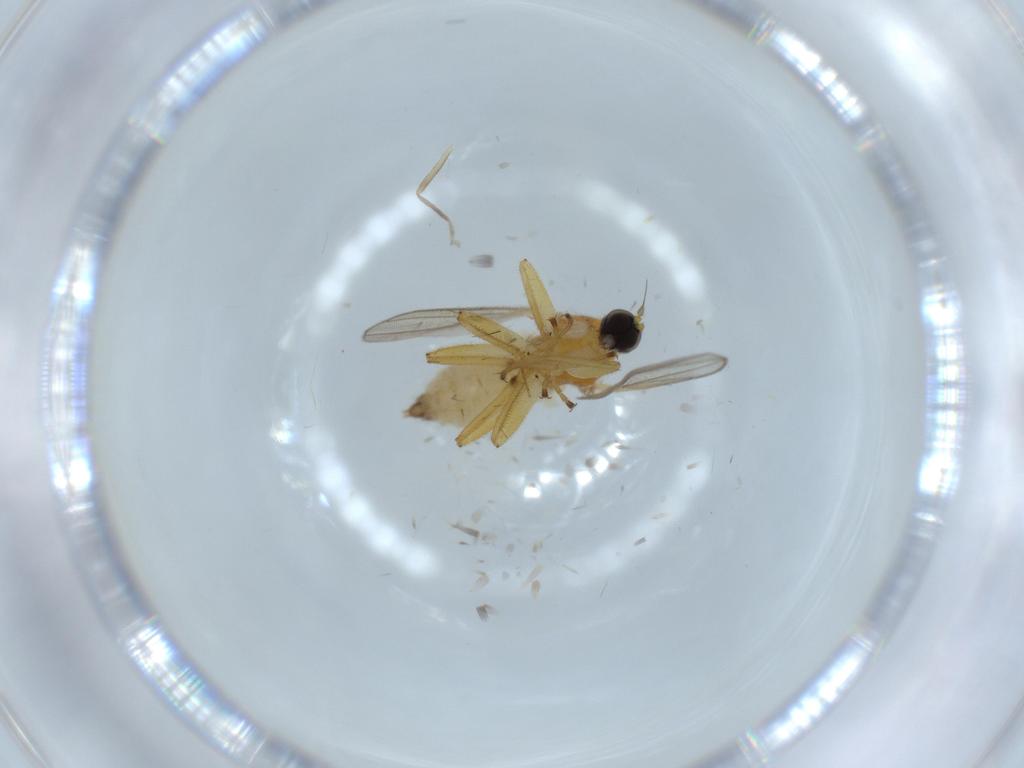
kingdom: Animalia
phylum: Arthropoda
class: Insecta
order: Diptera
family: Hybotidae
